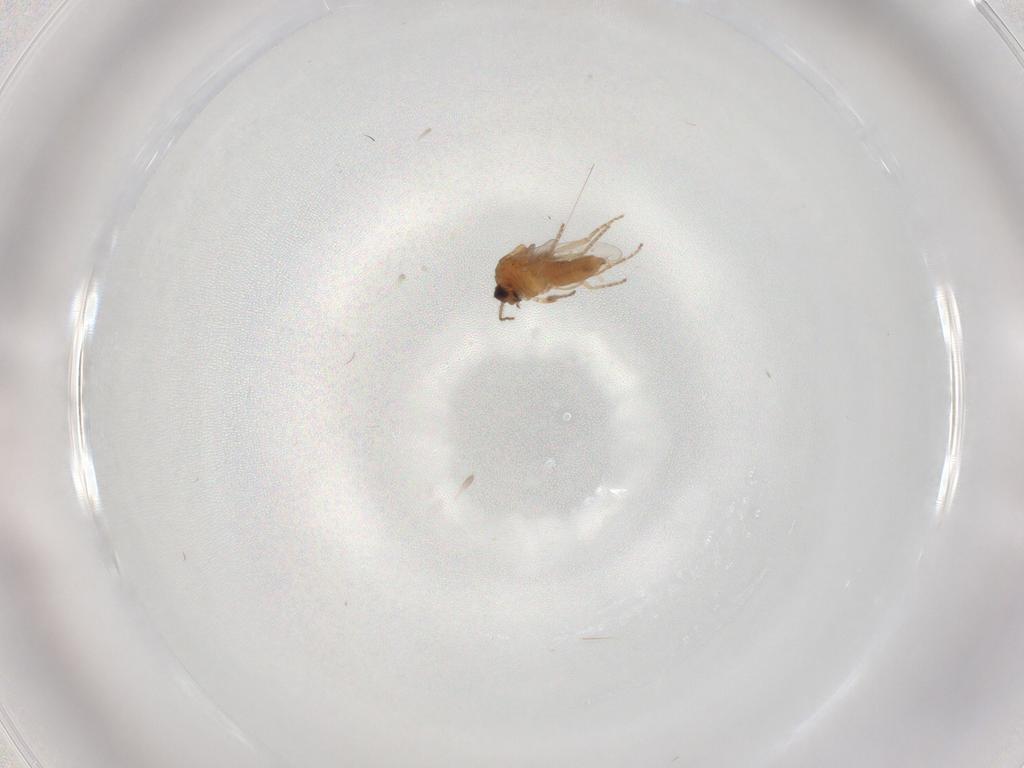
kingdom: Animalia
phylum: Arthropoda
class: Insecta
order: Diptera
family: Ceratopogonidae
